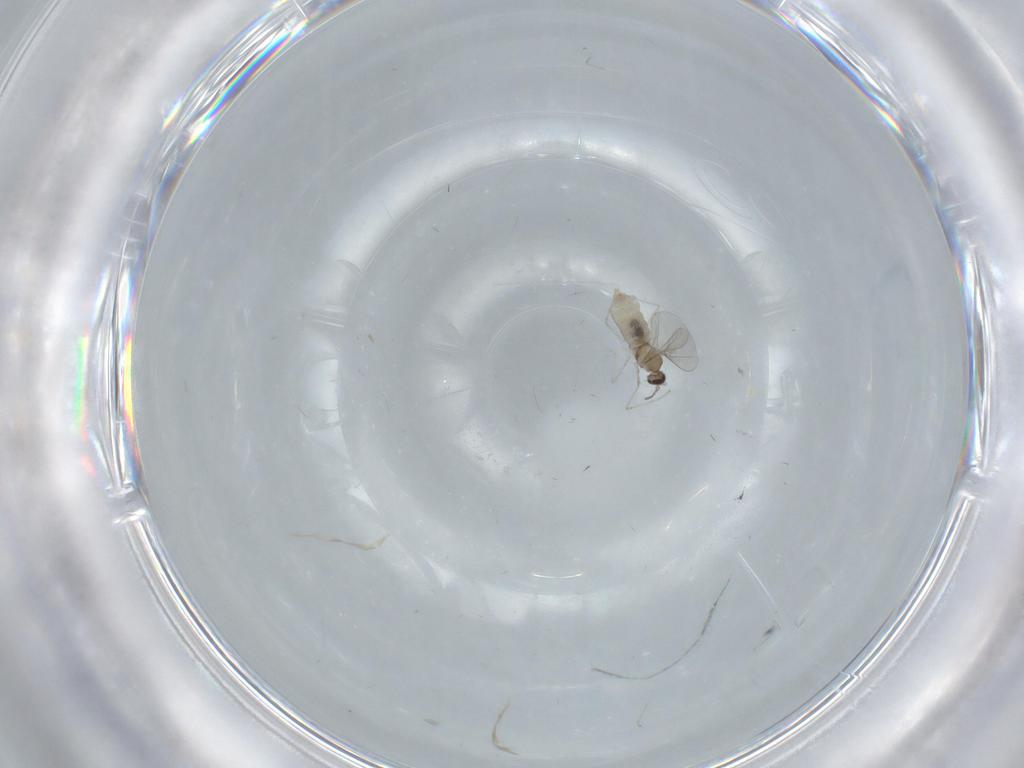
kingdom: Animalia
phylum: Arthropoda
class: Insecta
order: Diptera
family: Cecidomyiidae
